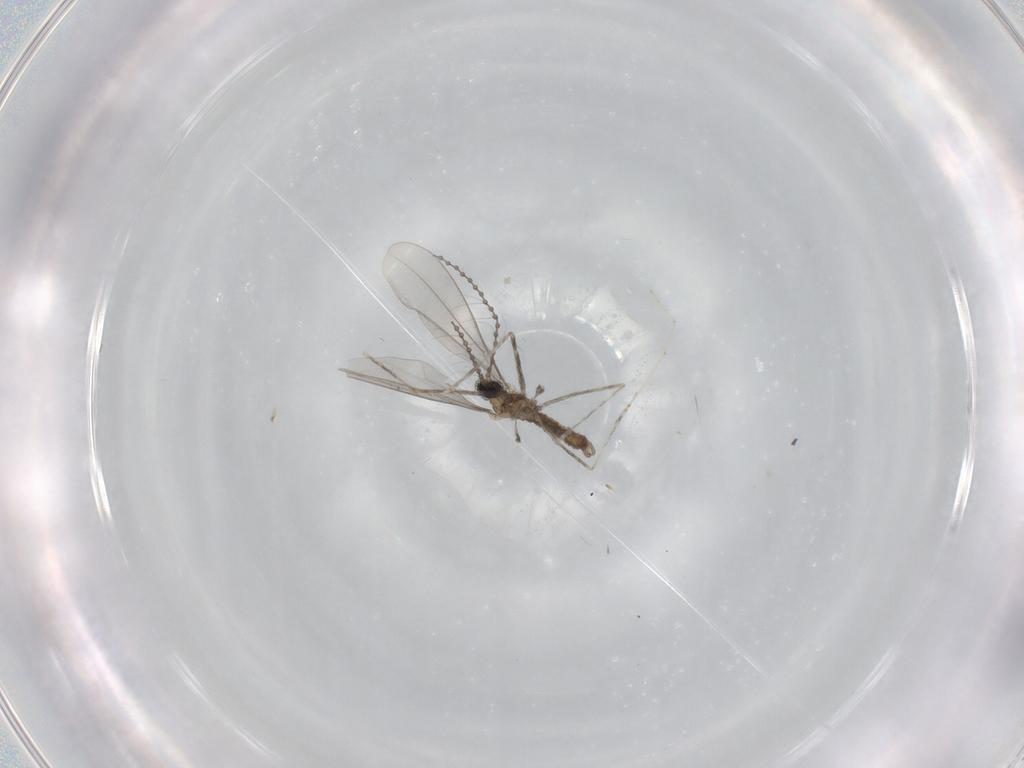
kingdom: Animalia
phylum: Arthropoda
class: Insecta
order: Diptera
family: Cecidomyiidae
